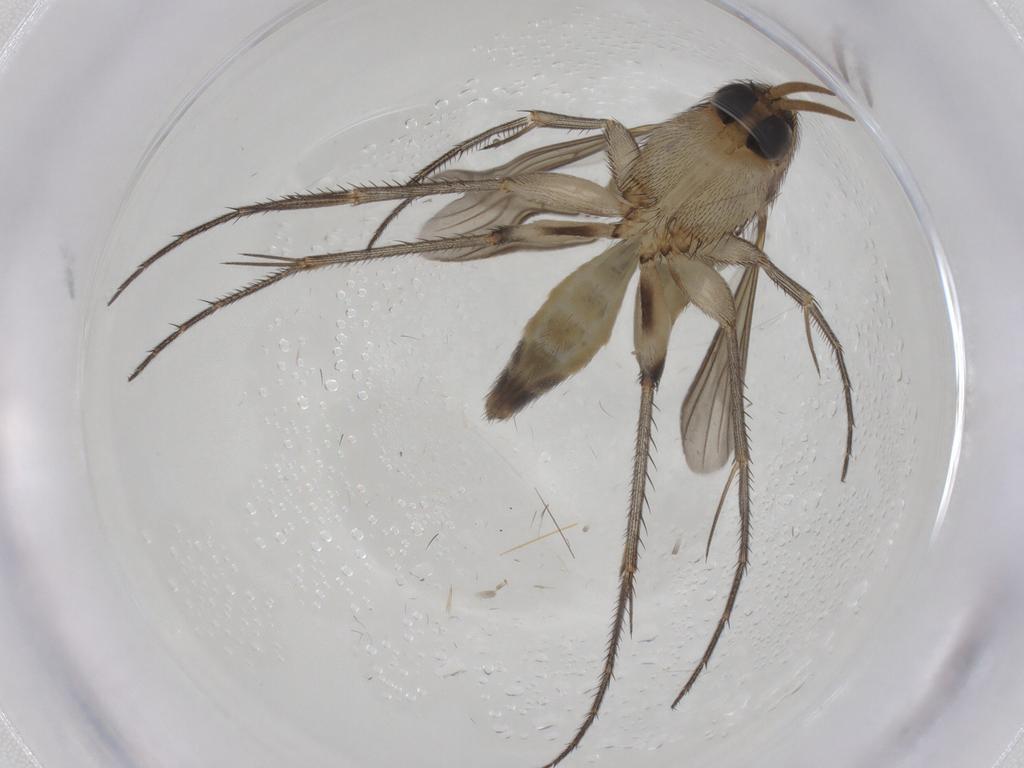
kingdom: Animalia
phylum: Arthropoda
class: Insecta
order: Diptera
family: Mycetophilidae
